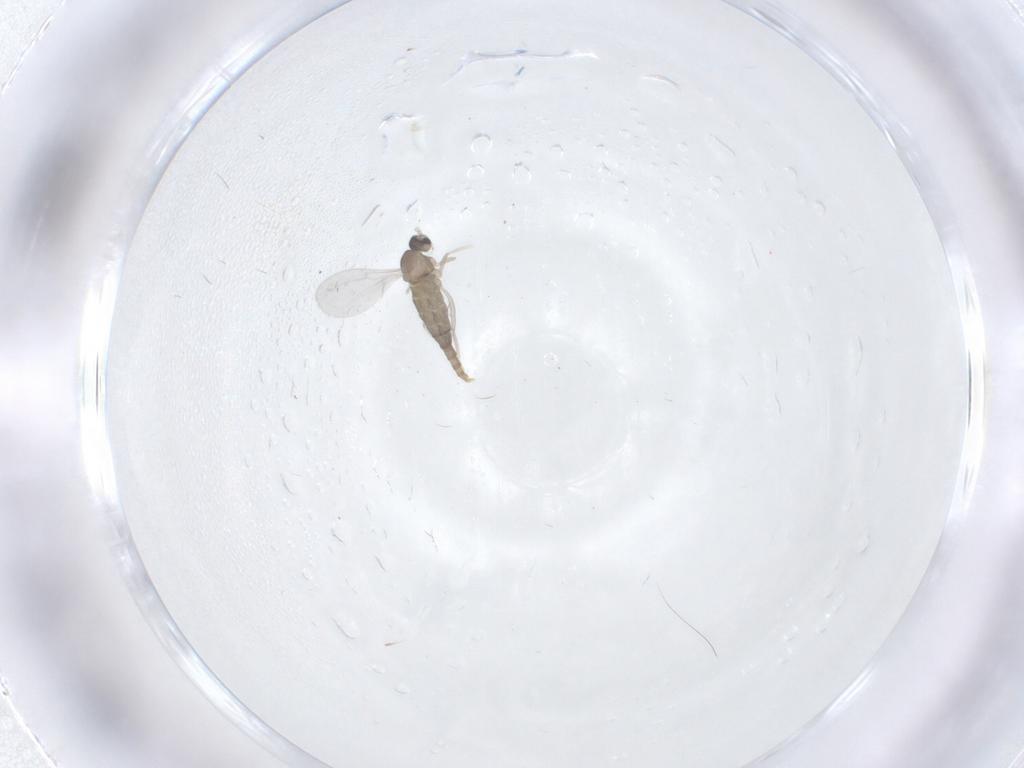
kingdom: Animalia
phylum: Arthropoda
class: Insecta
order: Diptera
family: Cecidomyiidae
